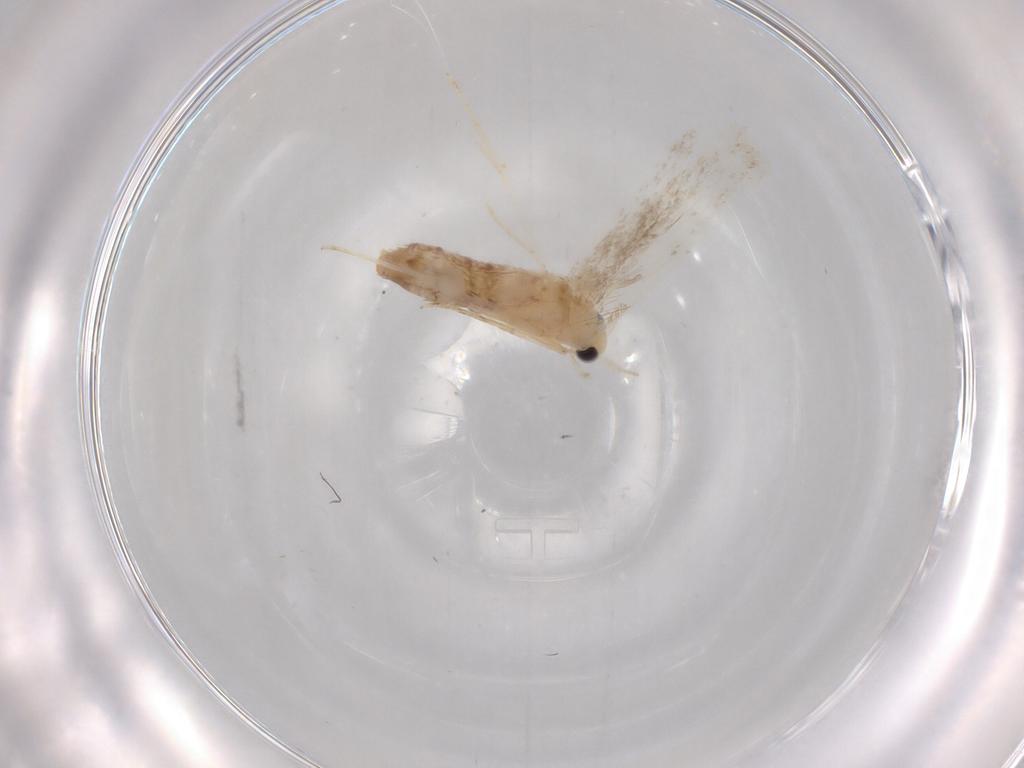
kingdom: Animalia
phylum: Arthropoda
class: Insecta
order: Lepidoptera
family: Dryadaulidae
